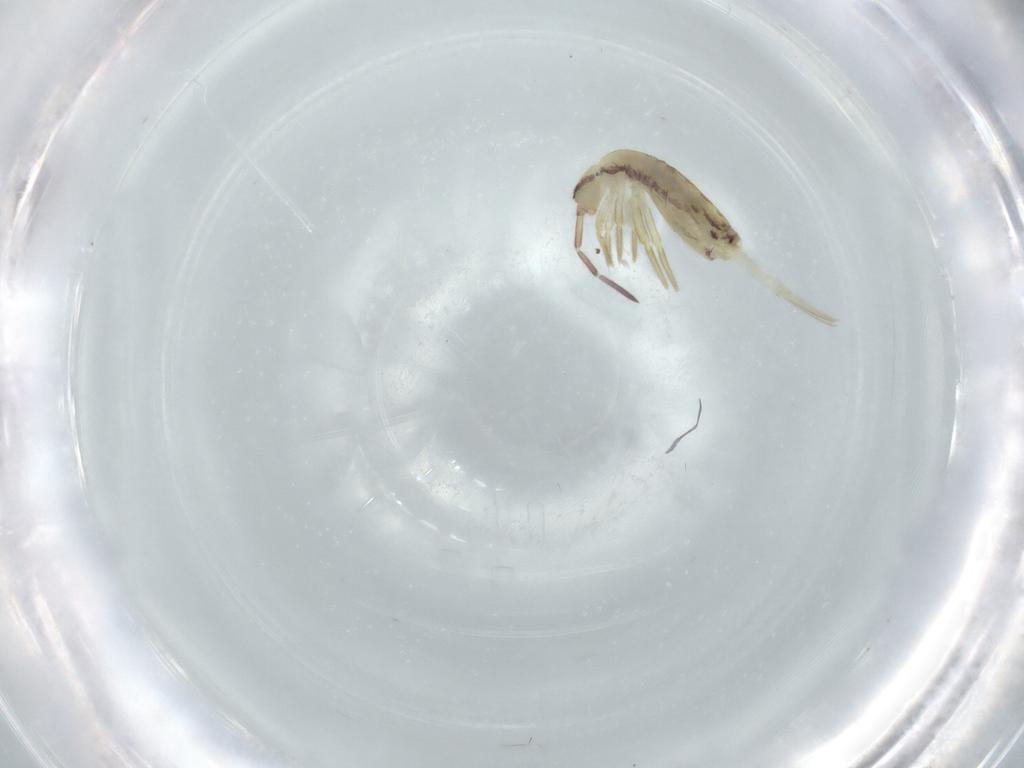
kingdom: Animalia
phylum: Arthropoda
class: Collembola
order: Entomobryomorpha
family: Entomobryidae
